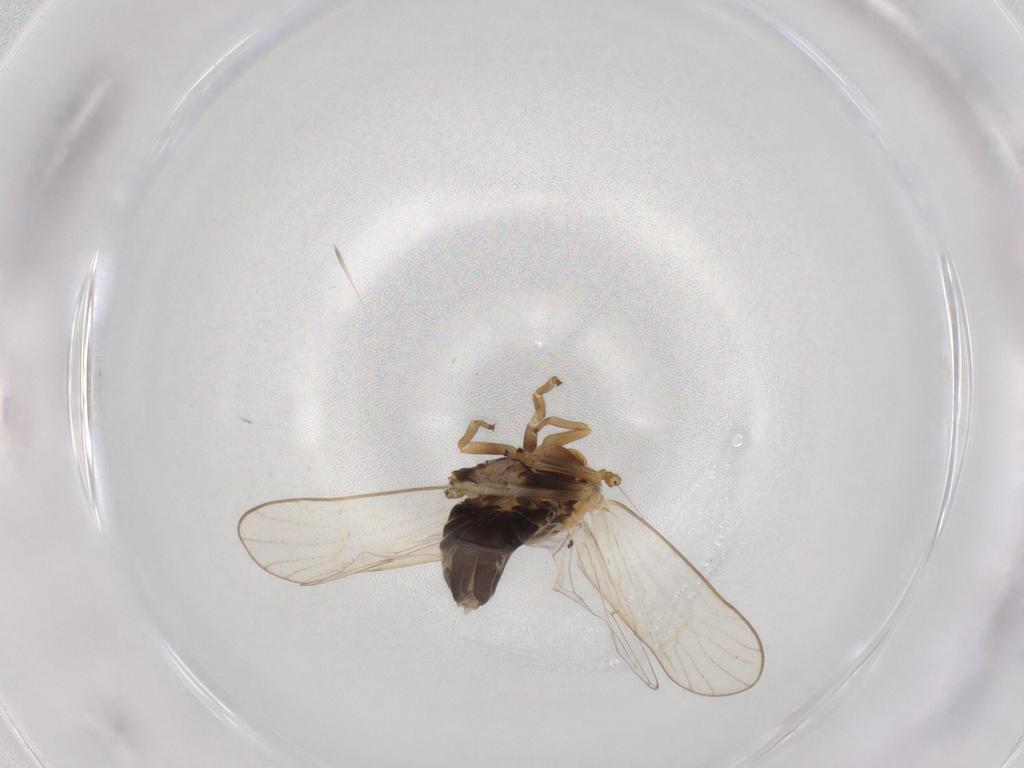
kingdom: Animalia
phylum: Arthropoda
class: Insecta
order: Hemiptera
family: Delphacidae
